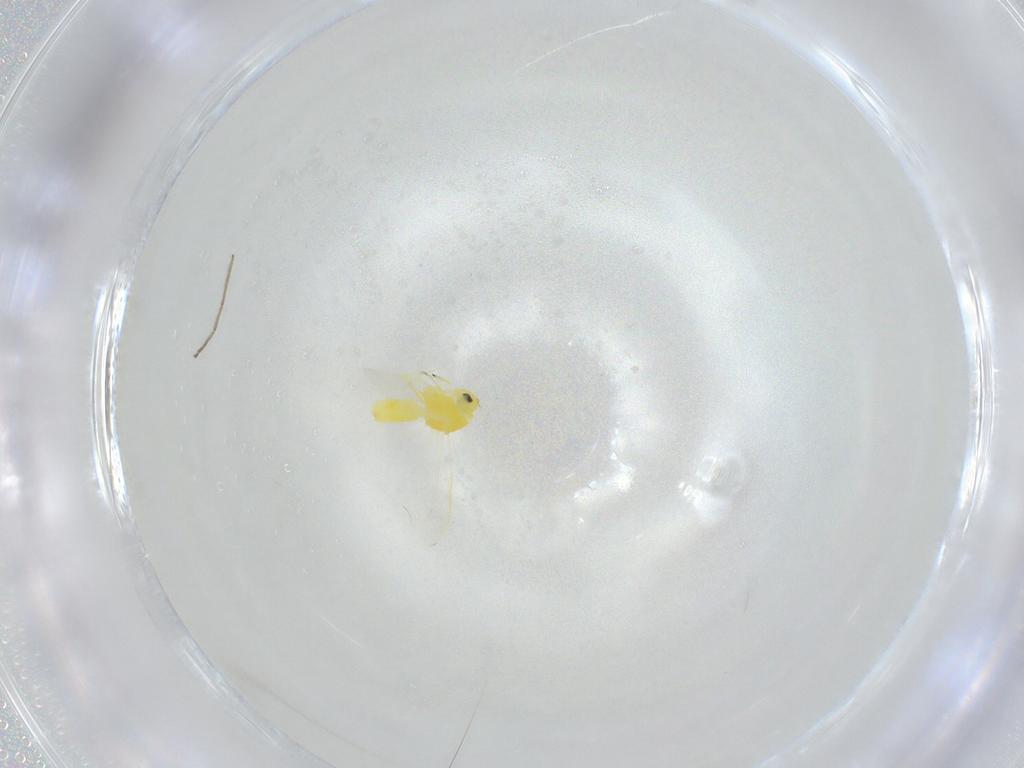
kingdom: Animalia
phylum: Arthropoda
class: Insecta
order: Hemiptera
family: Aleyrodidae
